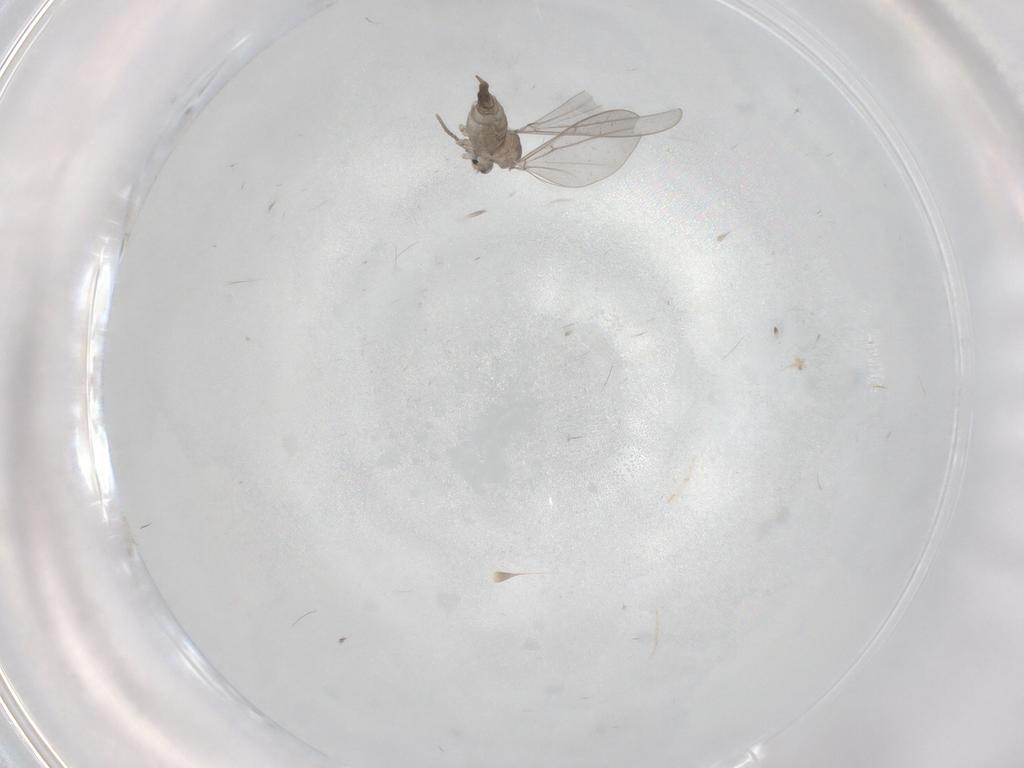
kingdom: Animalia
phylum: Arthropoda
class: Insecta
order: Diptera
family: Cecidomyiidae
